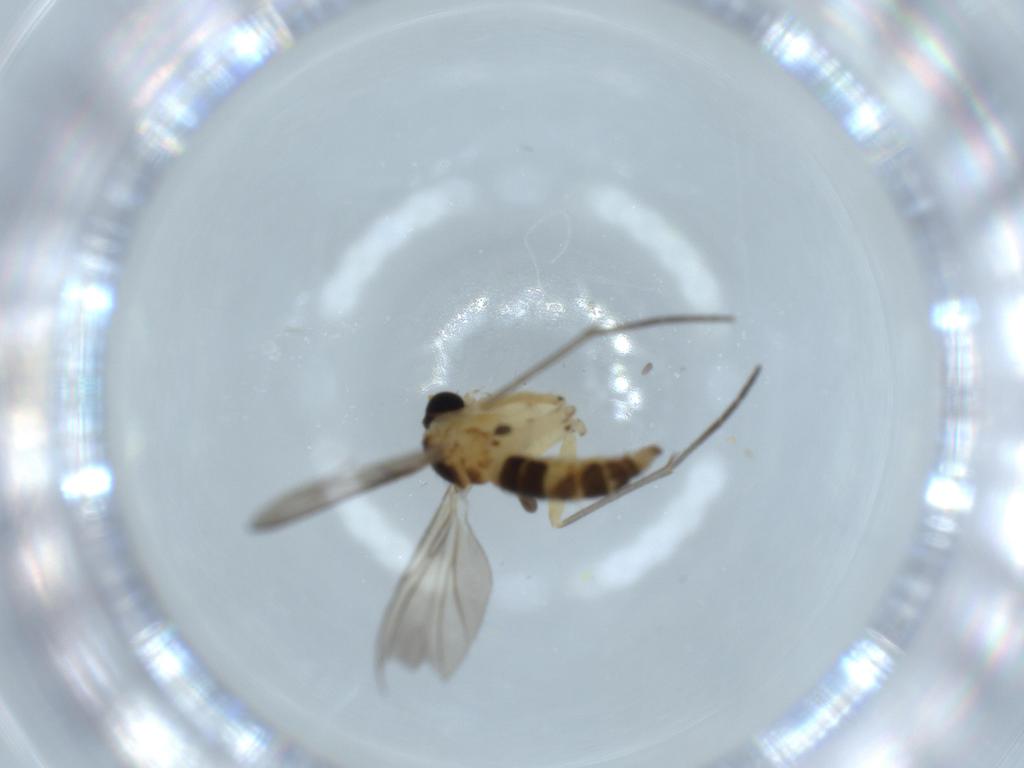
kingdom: Animalia
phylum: Arthropoda
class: Insecta
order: Diptera
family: Sciaridae
